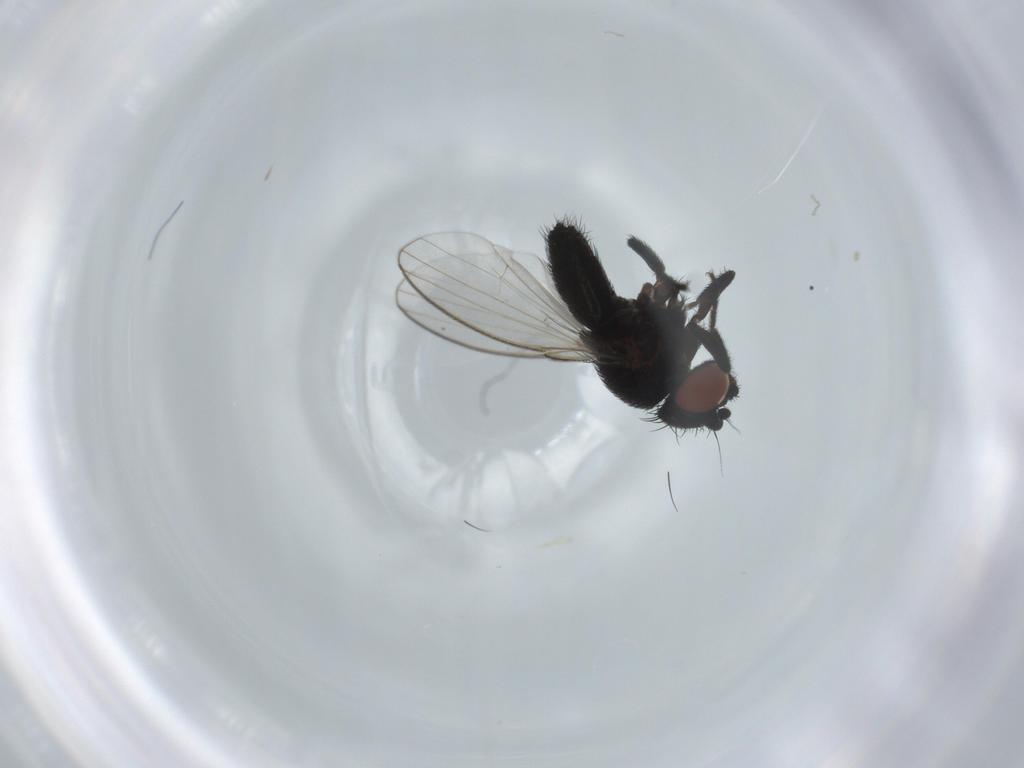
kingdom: Animalia
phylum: Arthropoda
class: Insecta
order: Diptera
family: Milichiidae
